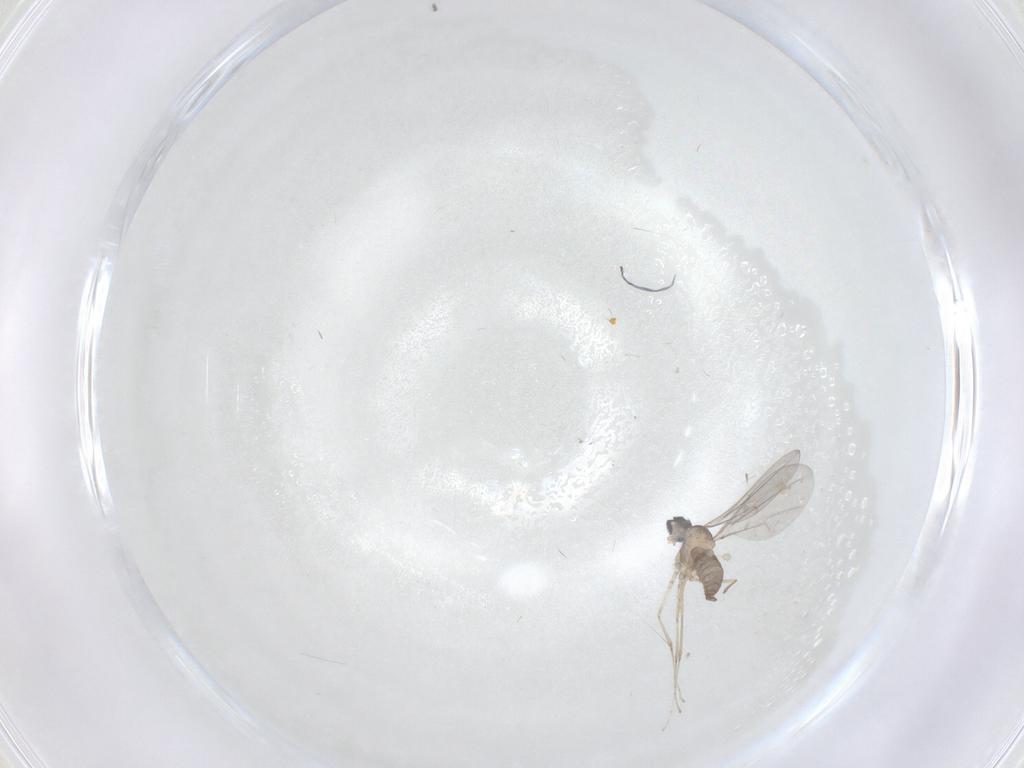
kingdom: Animalia
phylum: Arthropoda
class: Insecta
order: Diptera
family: Cecidomyiidae
